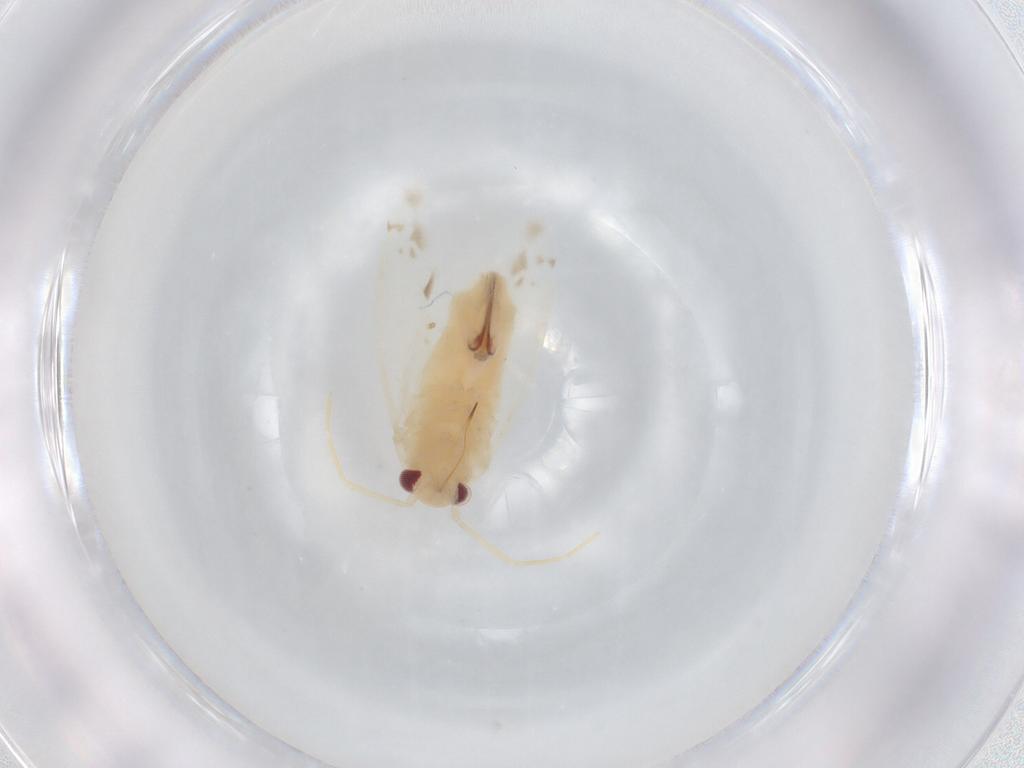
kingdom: Animalia
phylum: Arthropoda
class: Insecta
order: Hemiptera
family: Miridae
